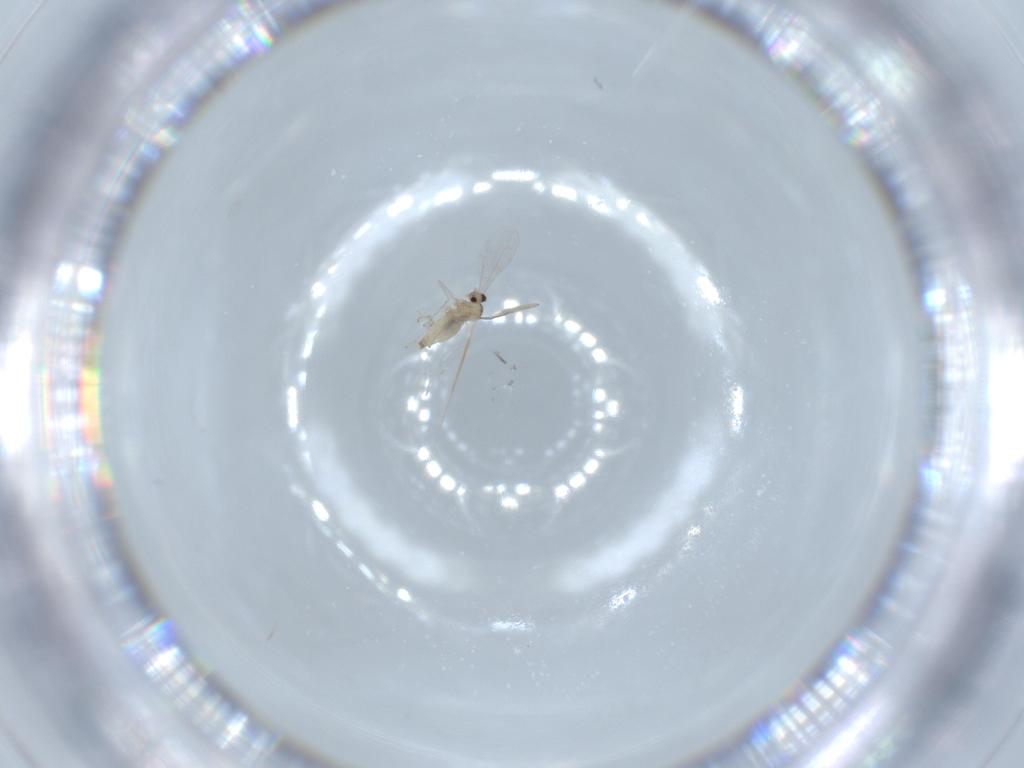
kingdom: Animalia
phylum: Arthropoda
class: Insecta
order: Diptera
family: Cecidomyiidae
